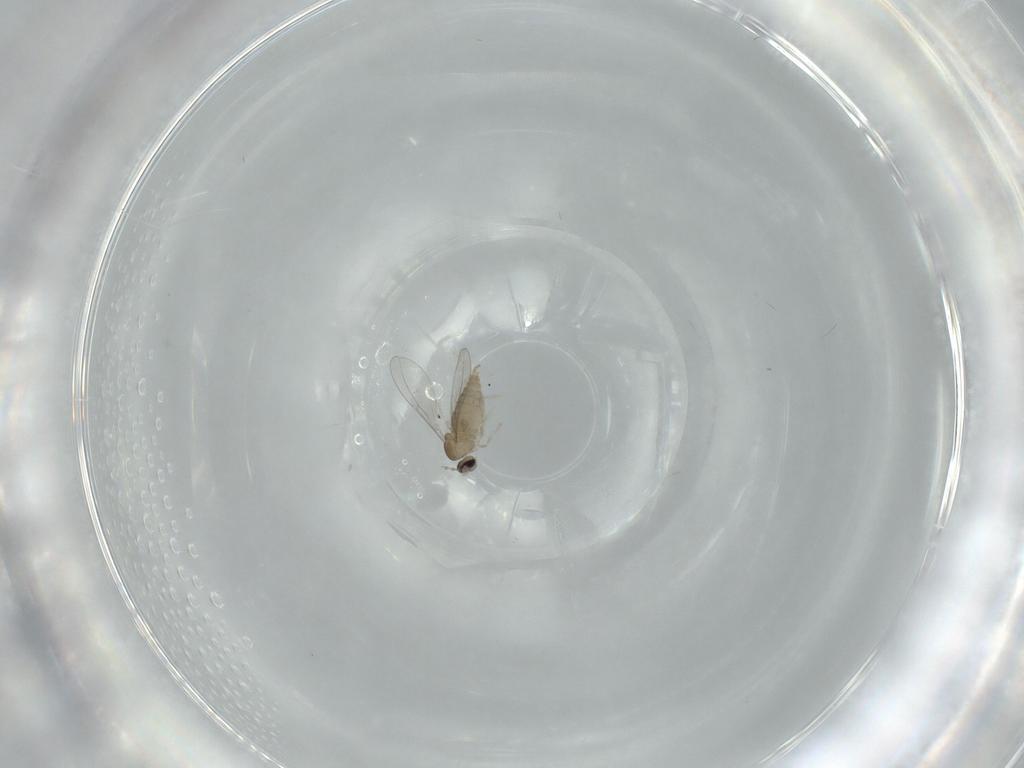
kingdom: Animalia
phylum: Arthropoda
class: Insecta
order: Diptera
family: Cecidomyiidae
